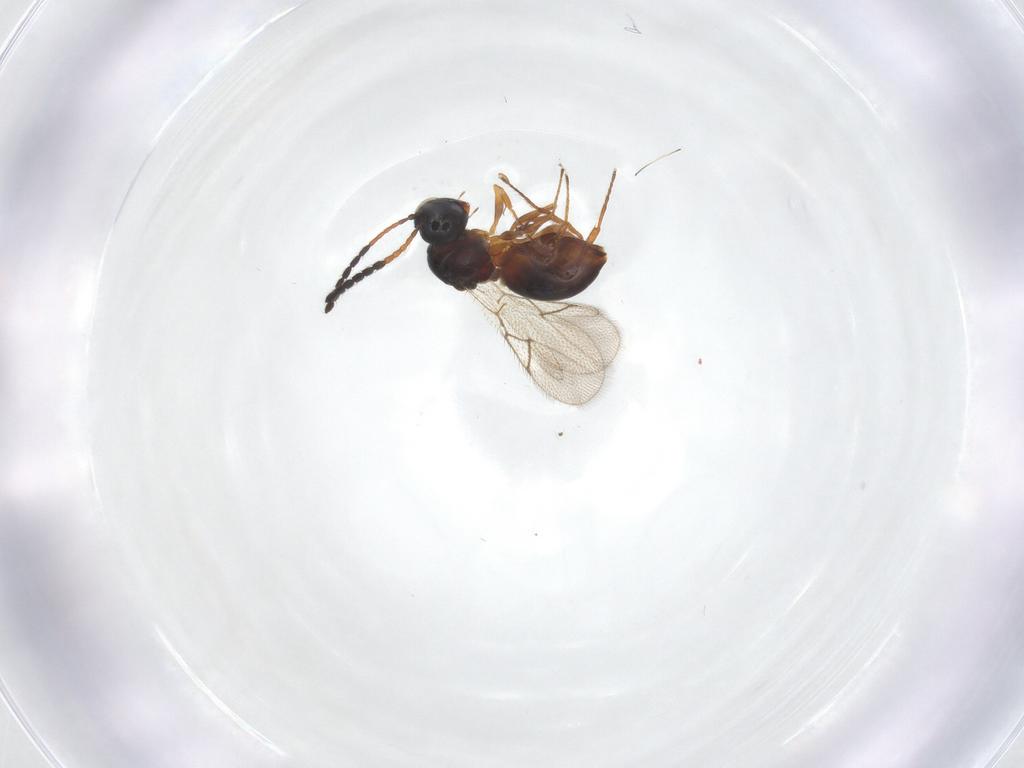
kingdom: Animalia
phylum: Arthropoda
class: Insecta
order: Hymenoptera
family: Figitidae
